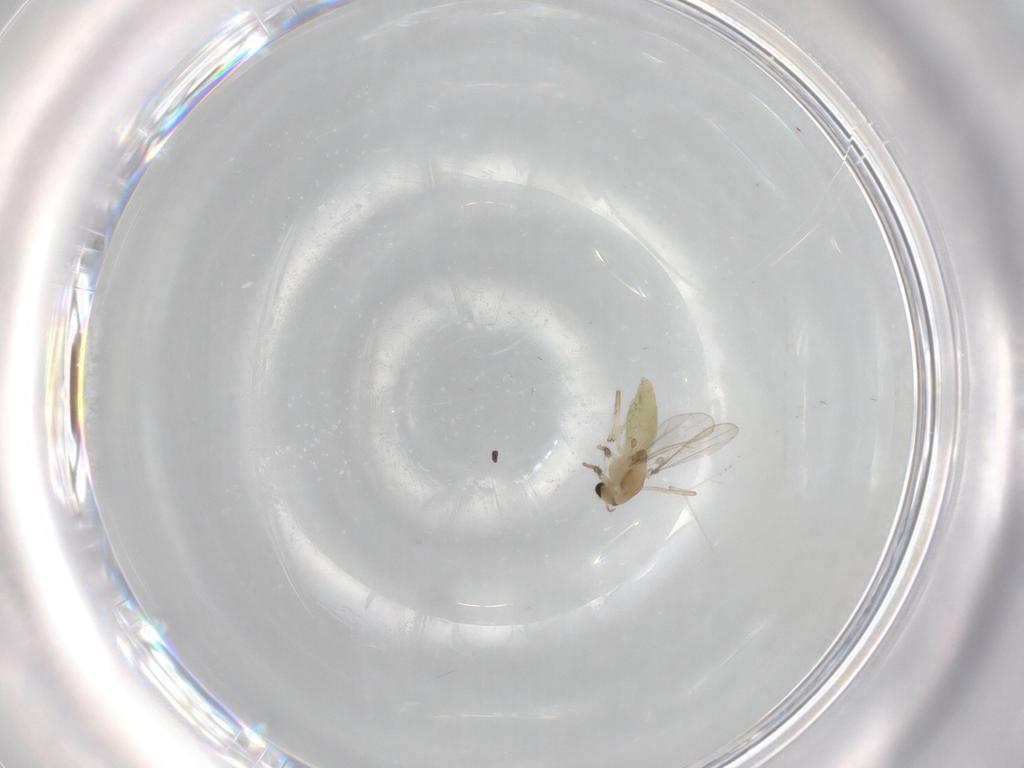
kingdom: Animalia
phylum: Arthropoda
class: Insecta
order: Diptera
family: Chironomidae
